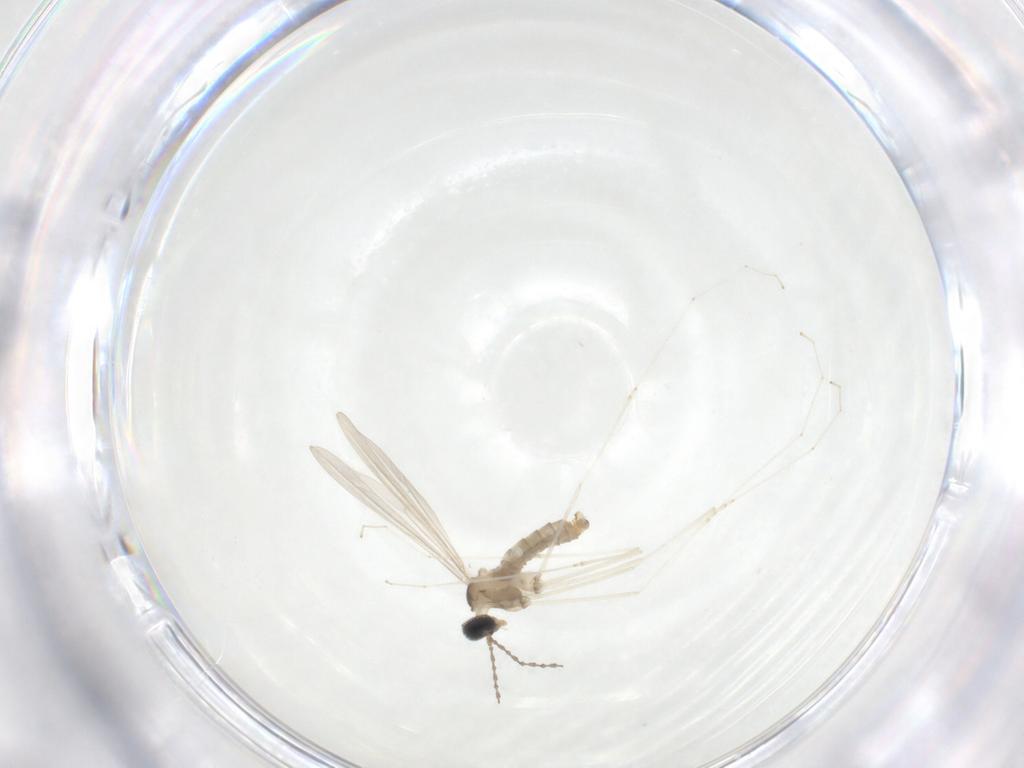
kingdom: Animalia
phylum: Arthropoda
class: Insecta
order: Diptera
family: Cecidomyiidae
